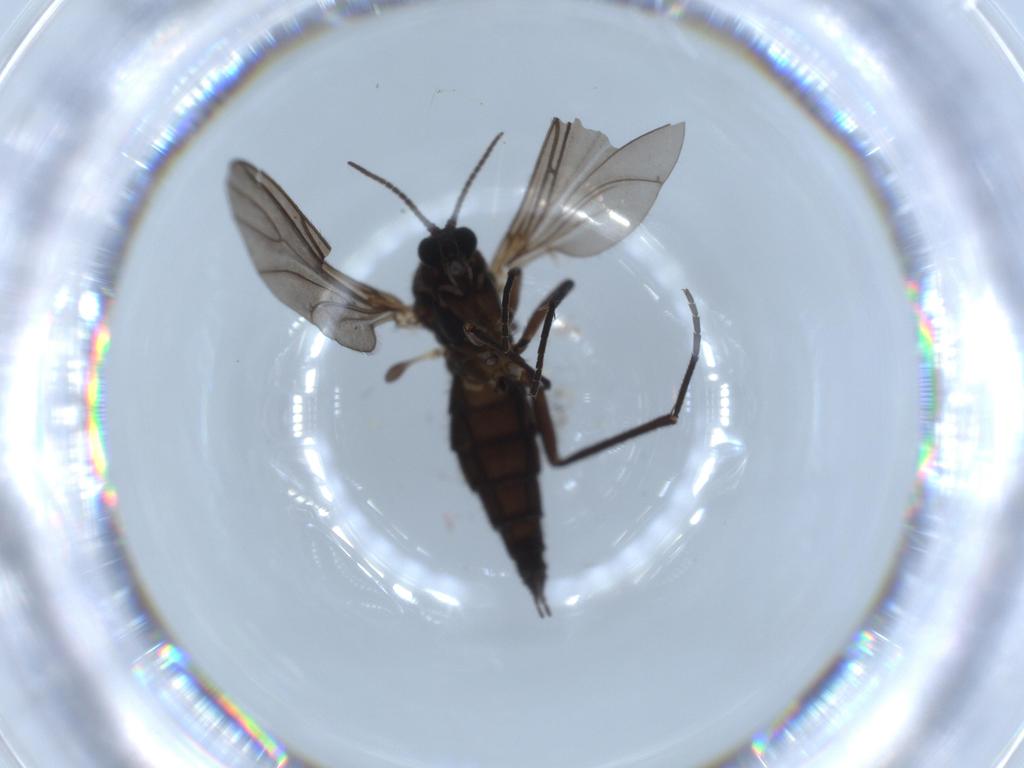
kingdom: Animalia
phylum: Arthropoda
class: Insecta
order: Diptera
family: Sciaridae
